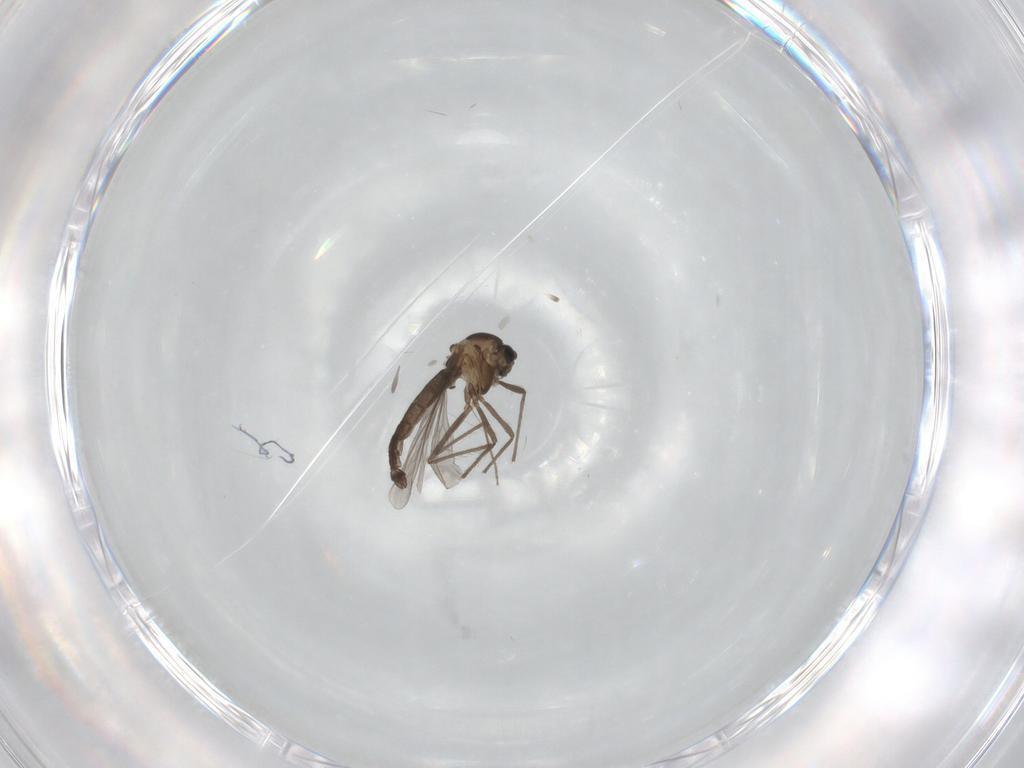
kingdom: Animalia
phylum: Arthropoda
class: Insecta
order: Diptera
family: Chironomidae
